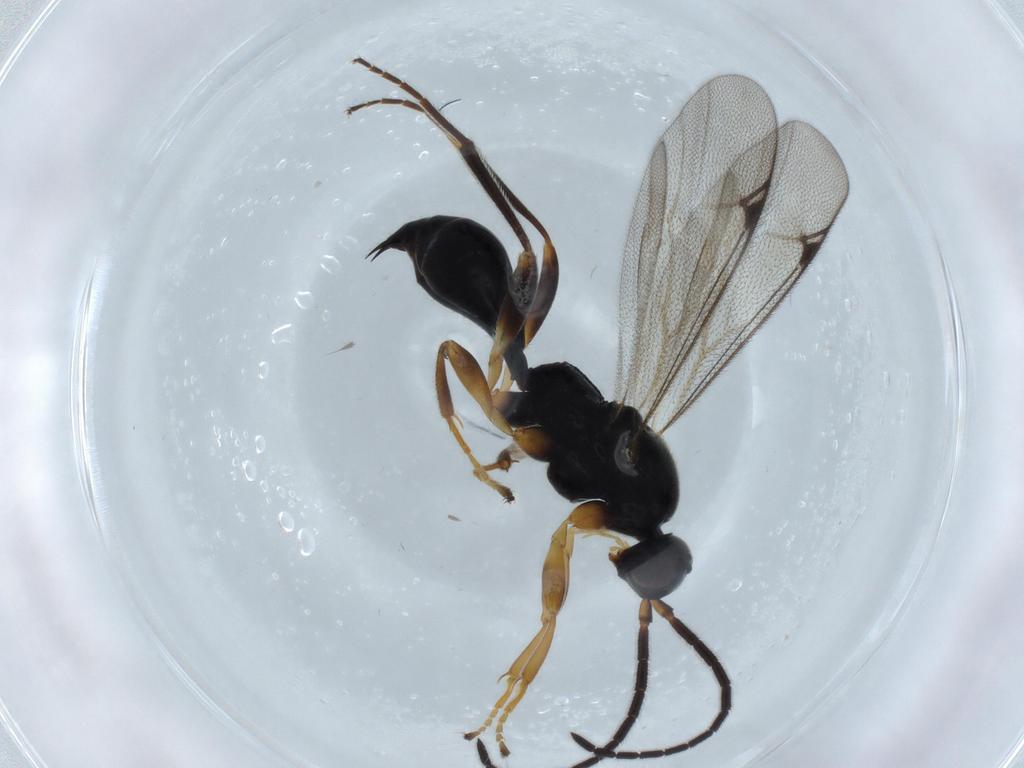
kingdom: Animalia
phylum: Arthropoda
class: Insecta
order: Hymenoptera
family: Proctotrupidae
